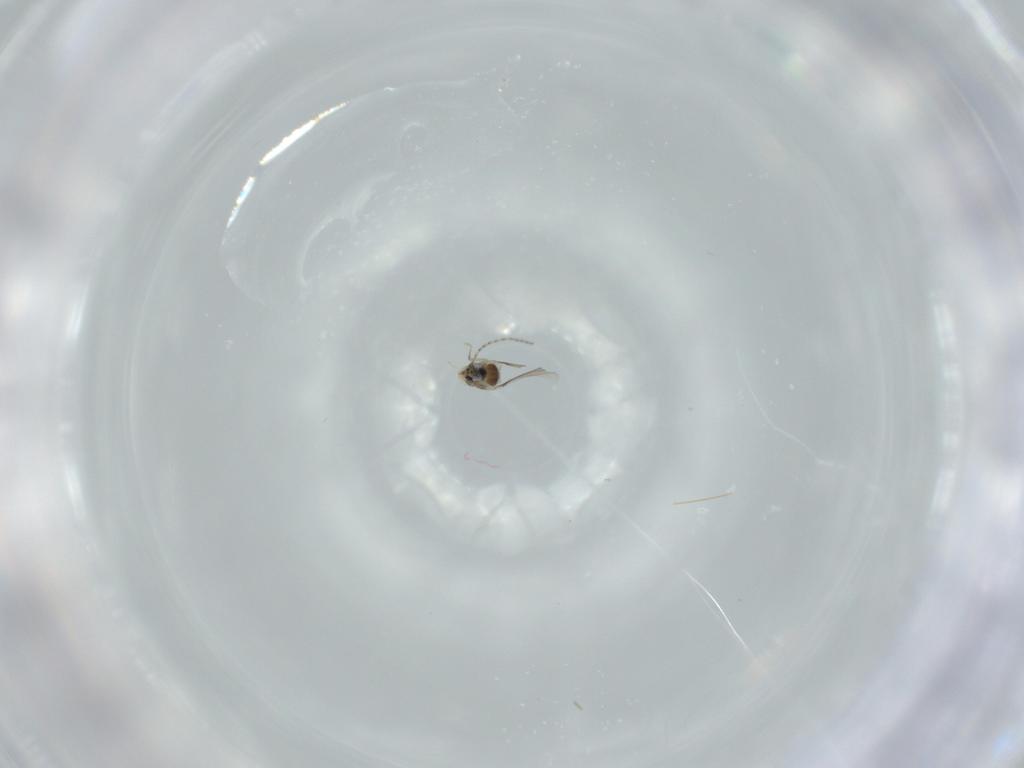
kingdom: Animalia
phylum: Arthropoda
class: Insecta
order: Diptera
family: Cecidomyiidae
